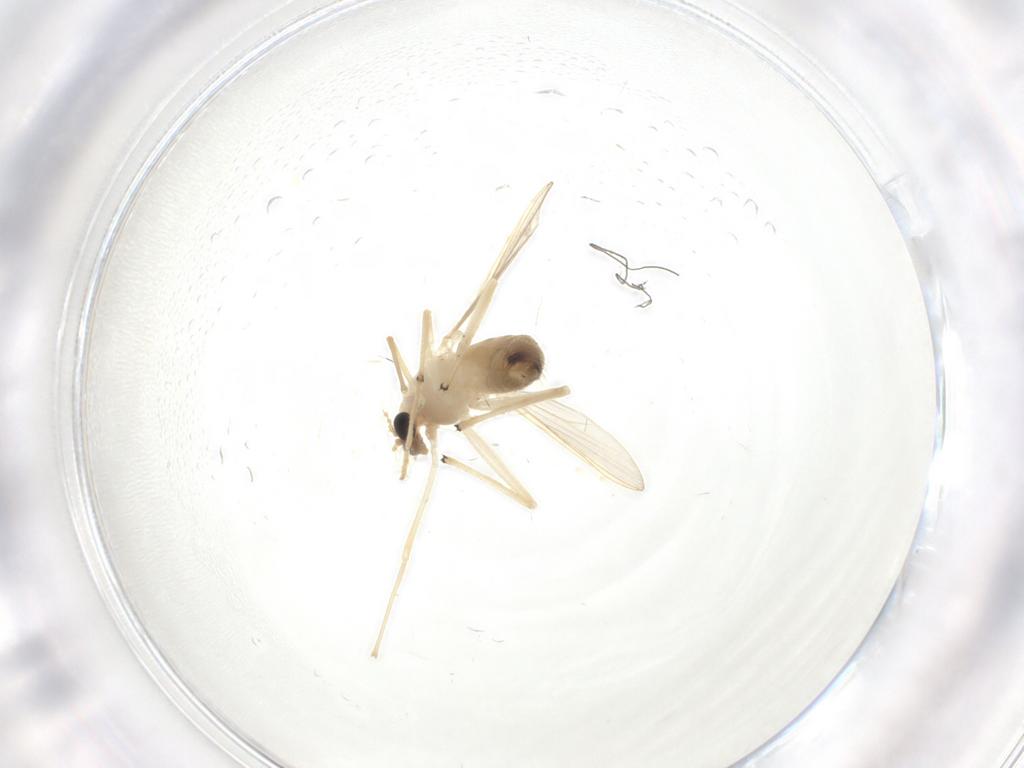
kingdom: Animalia
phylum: Arthropoda
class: Insecta
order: Diptera
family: Chironomidae
